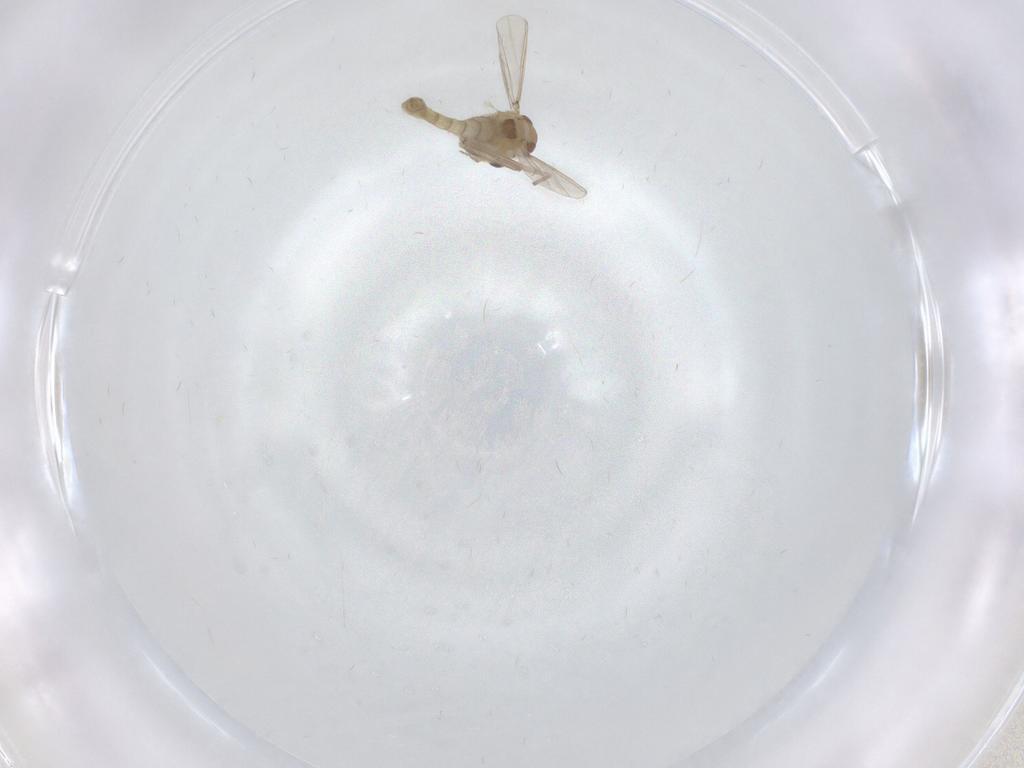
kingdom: Animalia
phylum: Arthropoda
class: Insecta
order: Diptera
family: Chironomidae
